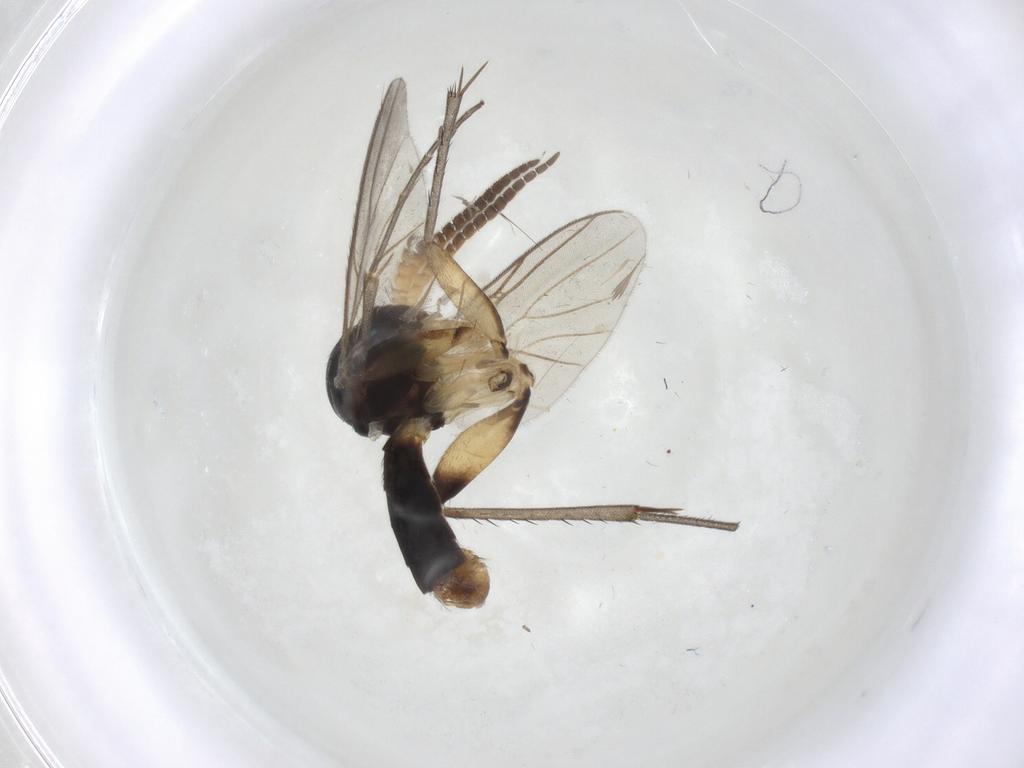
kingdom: Animalia
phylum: Arthropoda
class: Insecta
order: Diptera
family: Mycetophilidae
